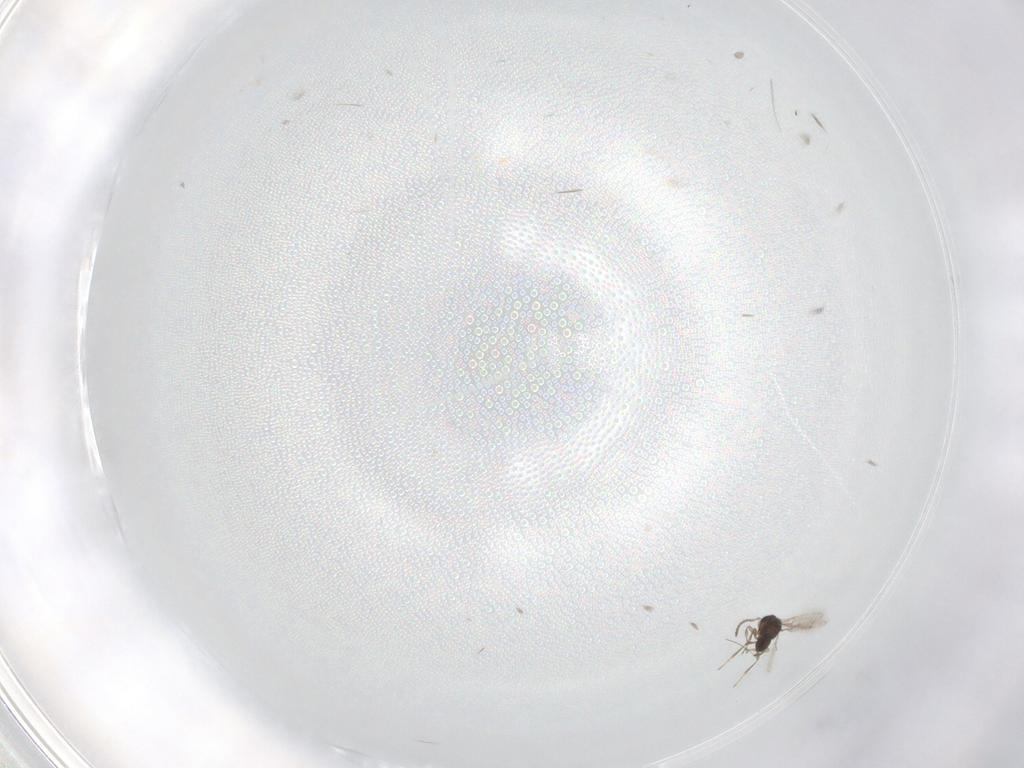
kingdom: Animalia
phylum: Arthropoda
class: Insecta
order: Hymenoptera
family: Scelionidae
